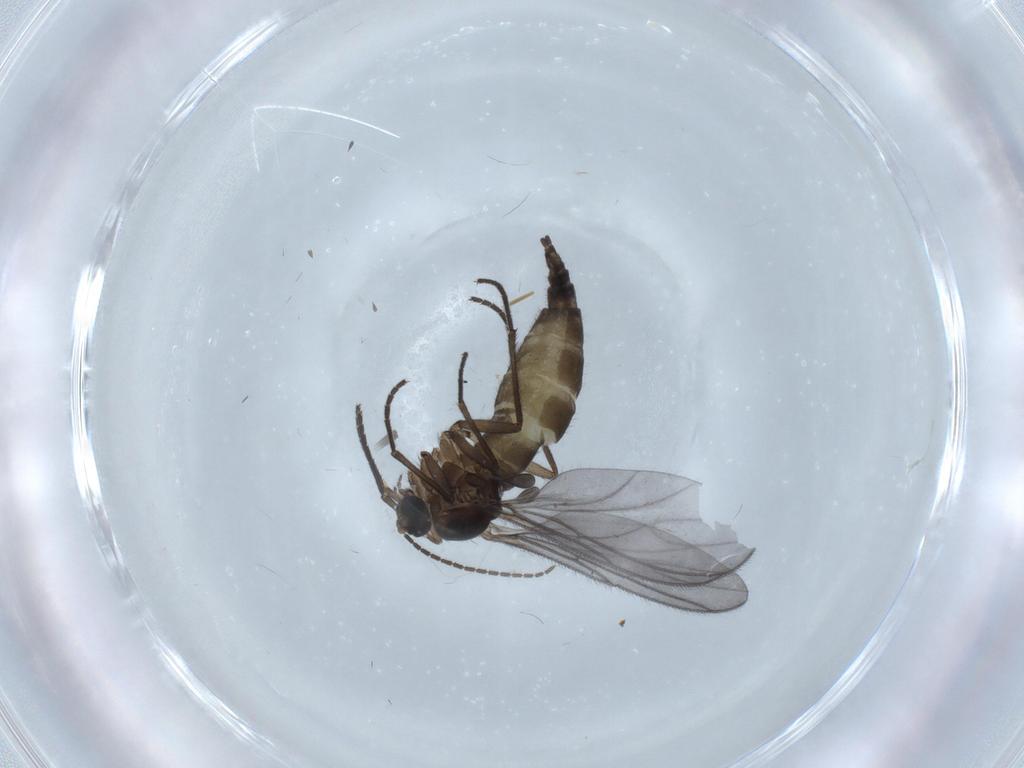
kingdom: Animalia
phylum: Arthropoda
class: Insecta
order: Diptera
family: Sciaridae
